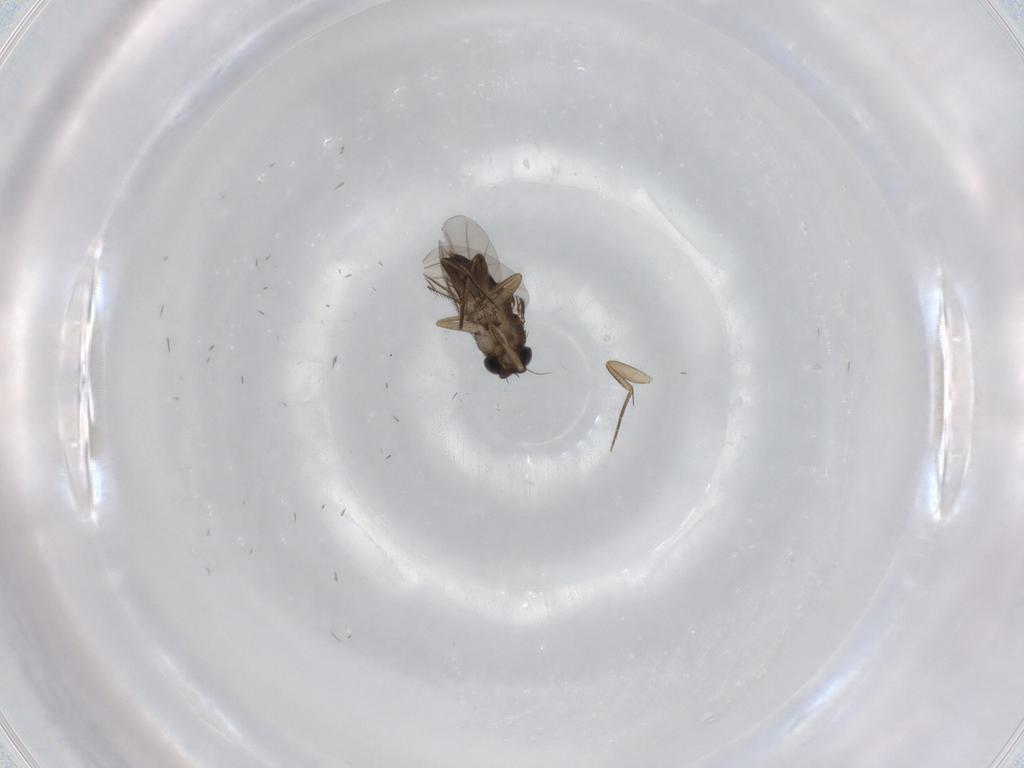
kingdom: Animalia
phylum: Arthropoda
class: Insecta
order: Diptera
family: Phoridae
